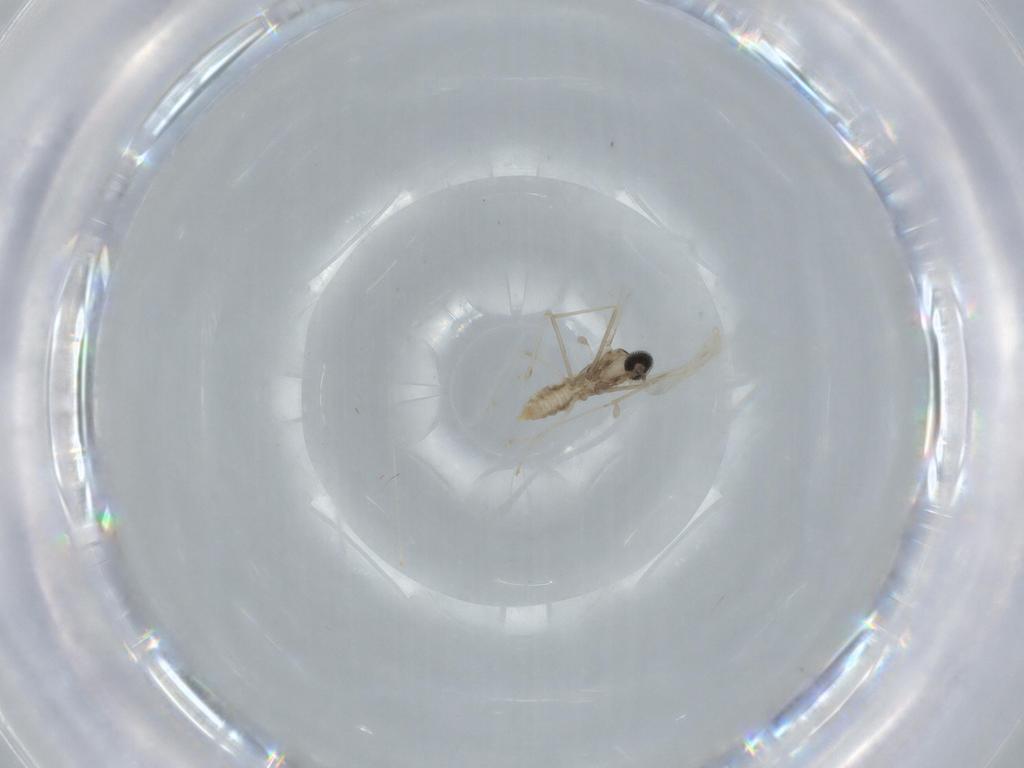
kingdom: Animalia
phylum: Arthropoda
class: Insecta
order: Diptera
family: Cecidomyiidae
